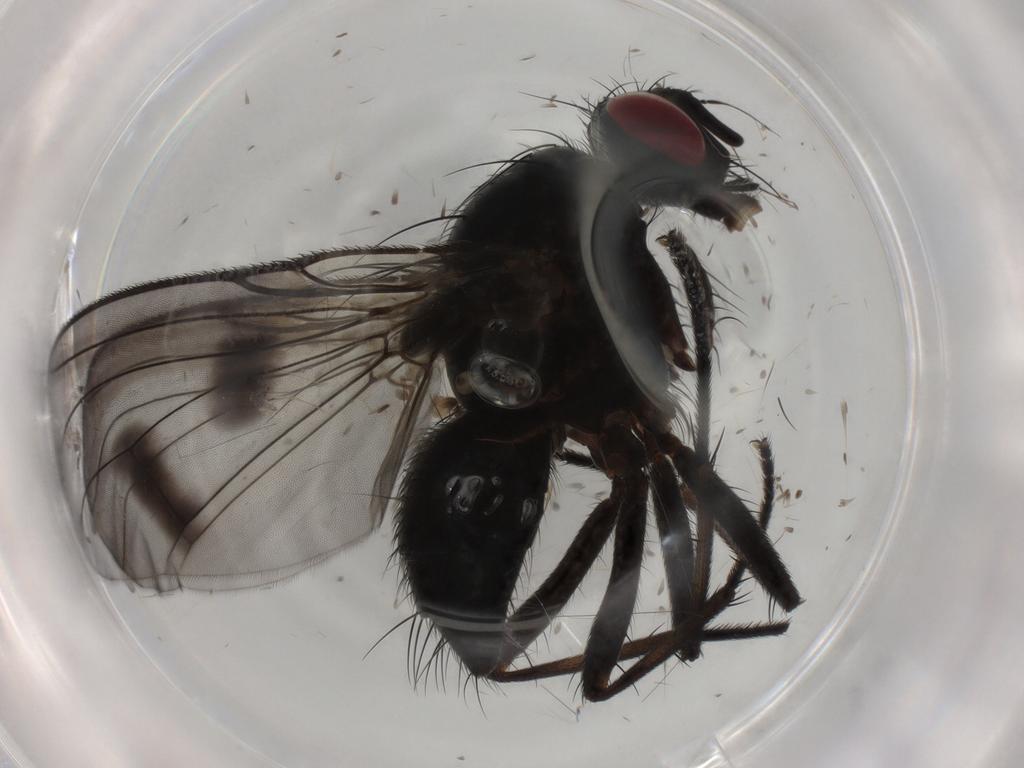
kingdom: Animalia
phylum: Arthropoda
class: Insecta
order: Diptera
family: Muscidae
